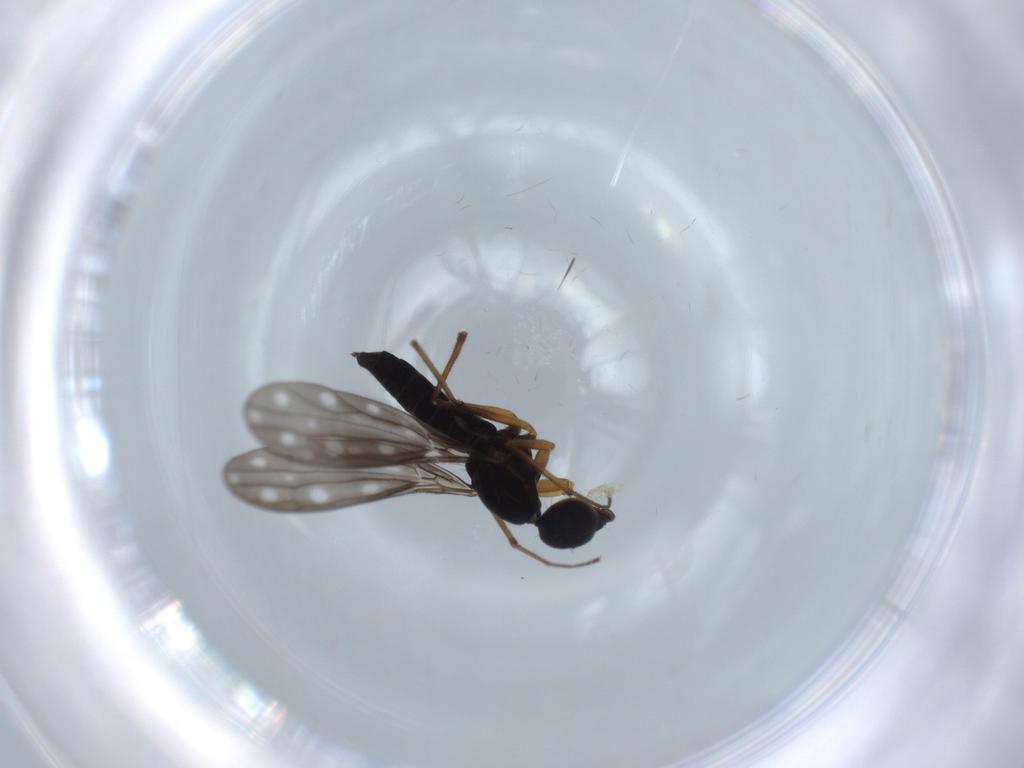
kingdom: Animalia
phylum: Arthropoda
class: Insecta
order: Diptera
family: Empididae
